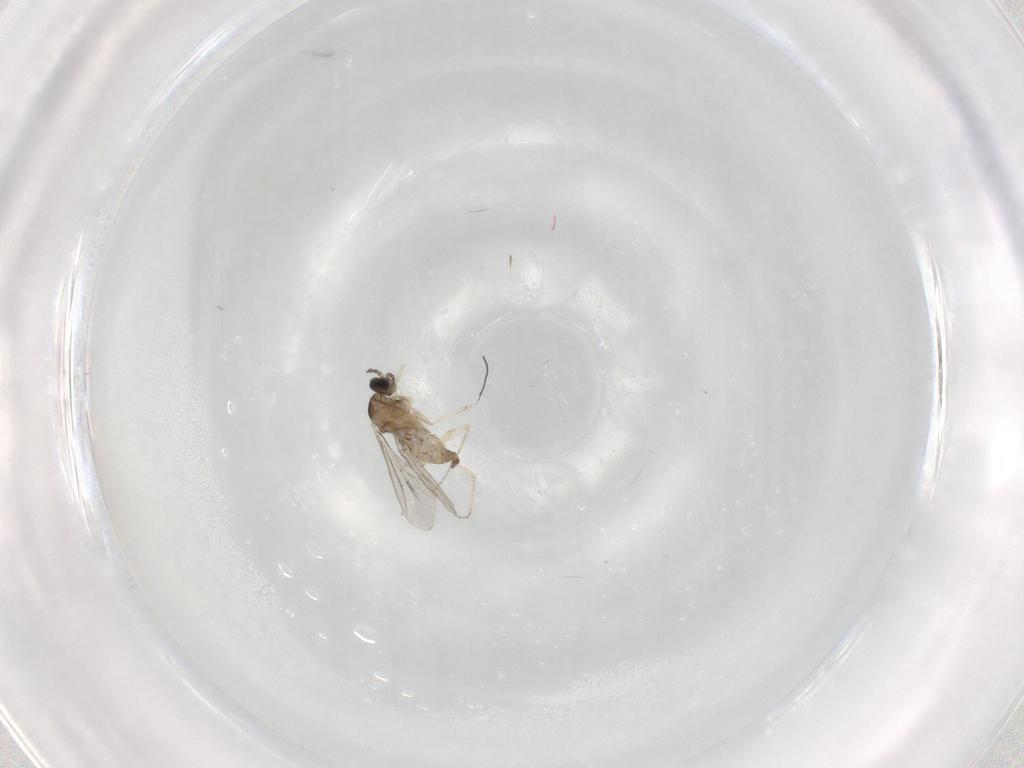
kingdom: Animalia
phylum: Arthropoda
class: Insecta
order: Diptera
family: Cecidomyiidae
